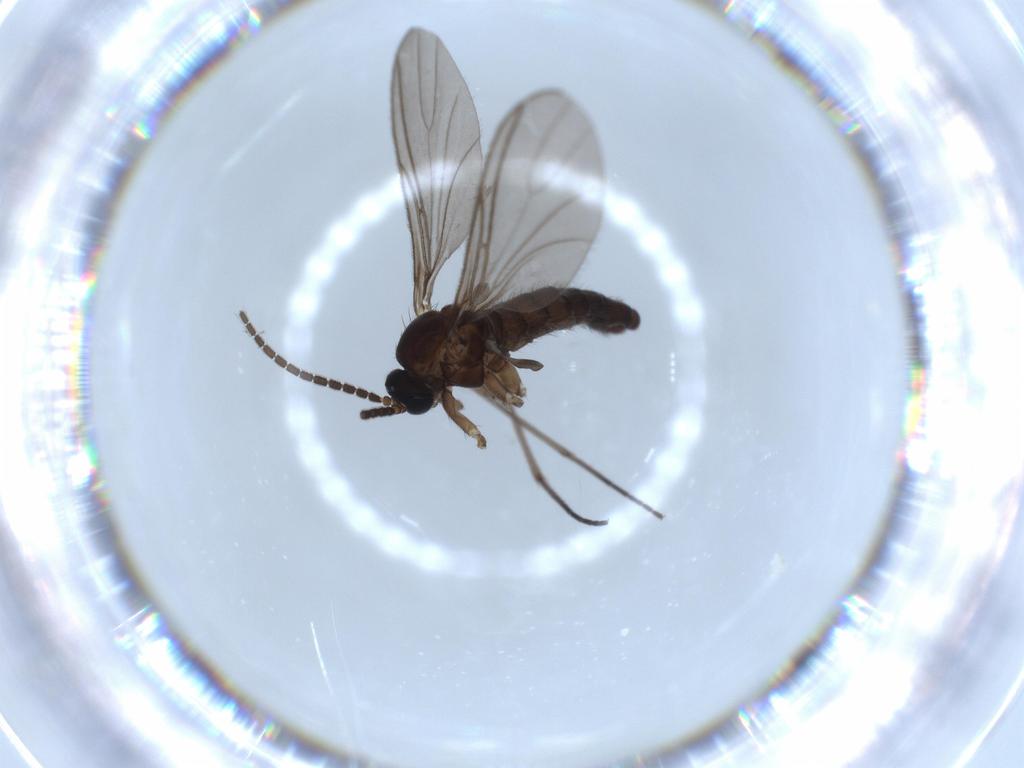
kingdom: Animalia
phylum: Arthropoda
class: Insecta
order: Diptera
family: Sciaridae
